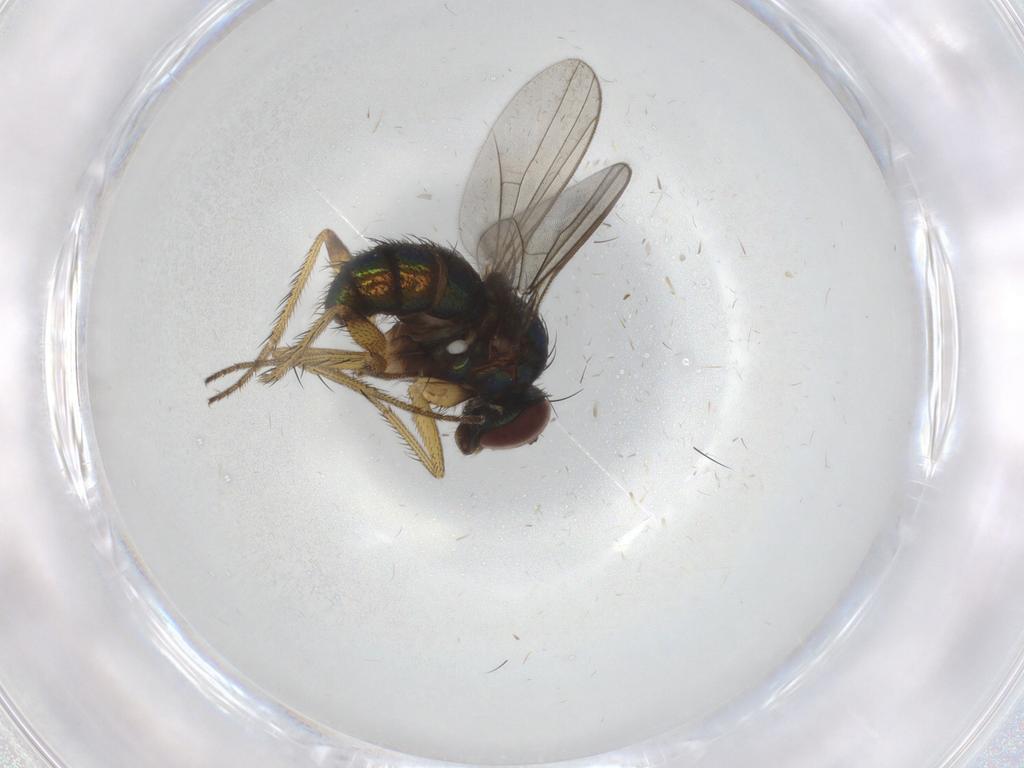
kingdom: Animalia
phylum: Arthropoda
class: Insecta
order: Diptera
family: Dolichopodidae
